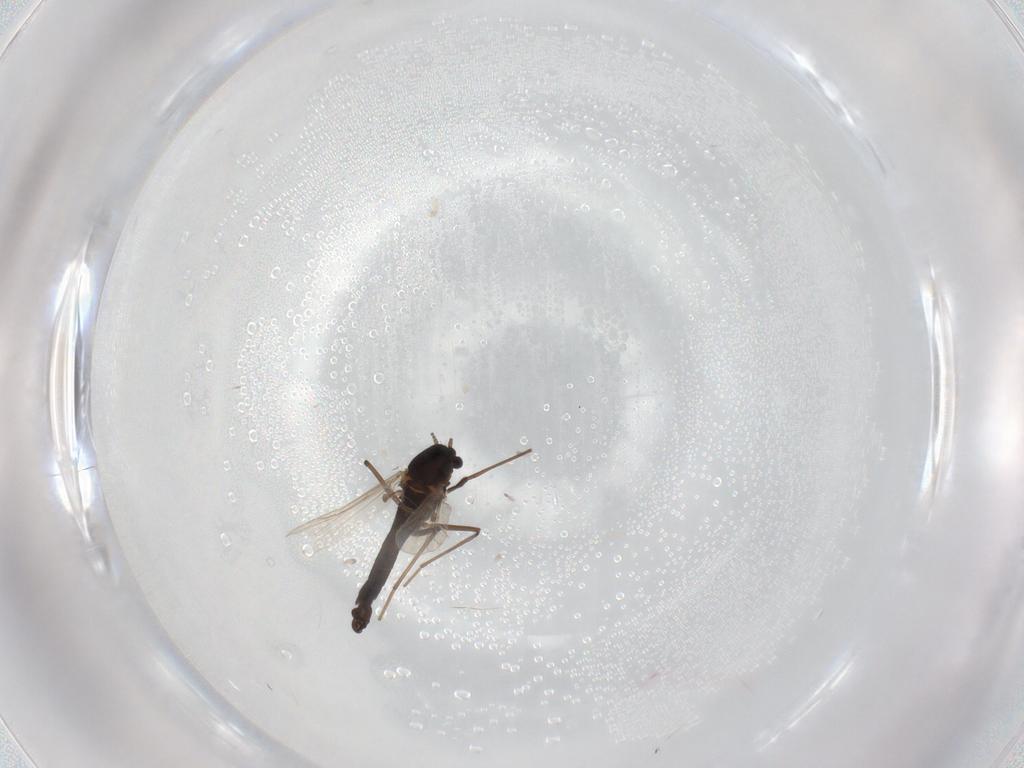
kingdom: Animalia
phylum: Arthropoda
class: Insecta
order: Diptera
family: Chironomidae
